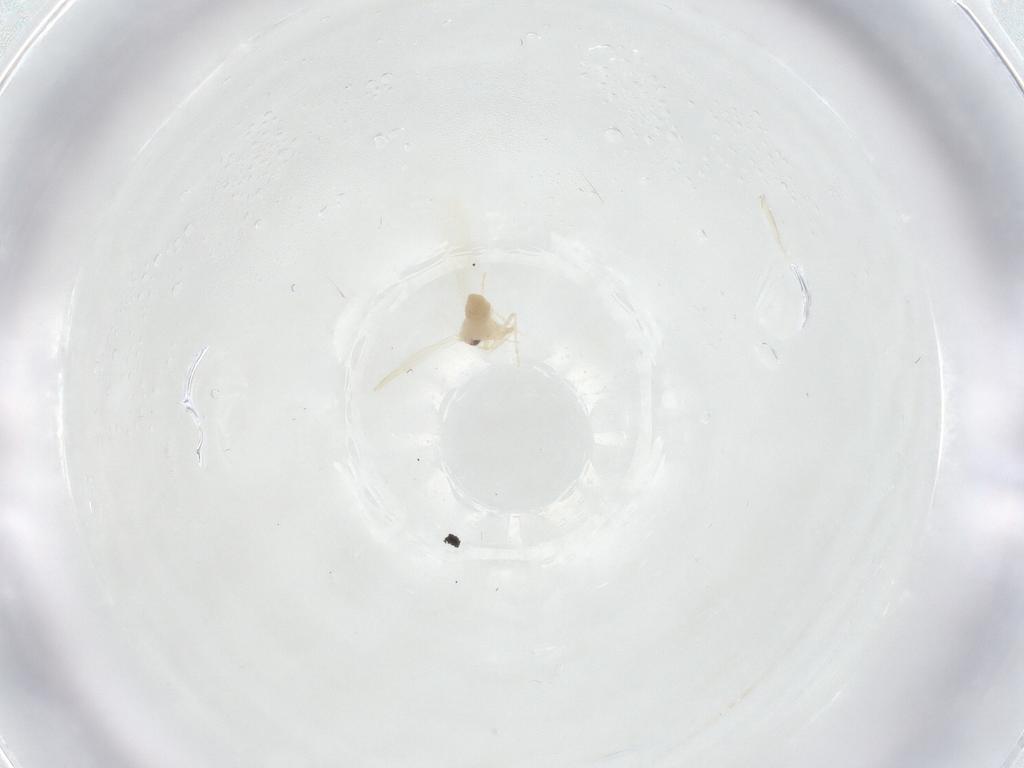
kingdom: Animalia
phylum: Arthropoda
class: Insecta
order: Hemiptera
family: Aleyrodidae
